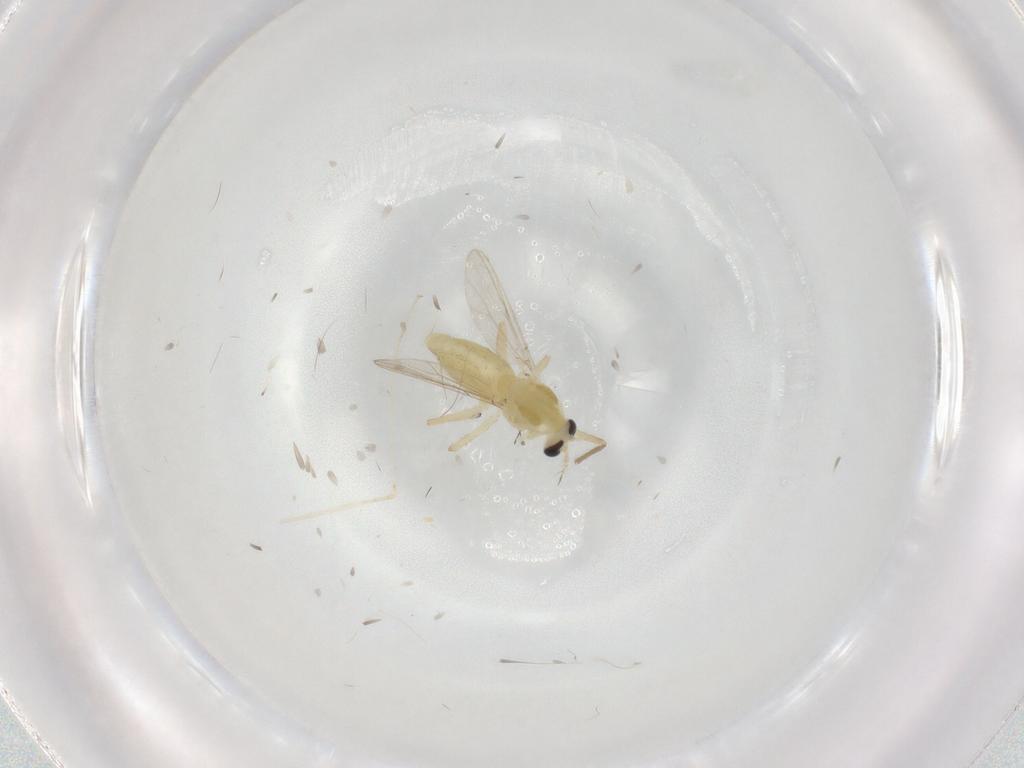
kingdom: Animalia
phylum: Arthropoda
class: Insecta
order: Diptera
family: Chironomidae
